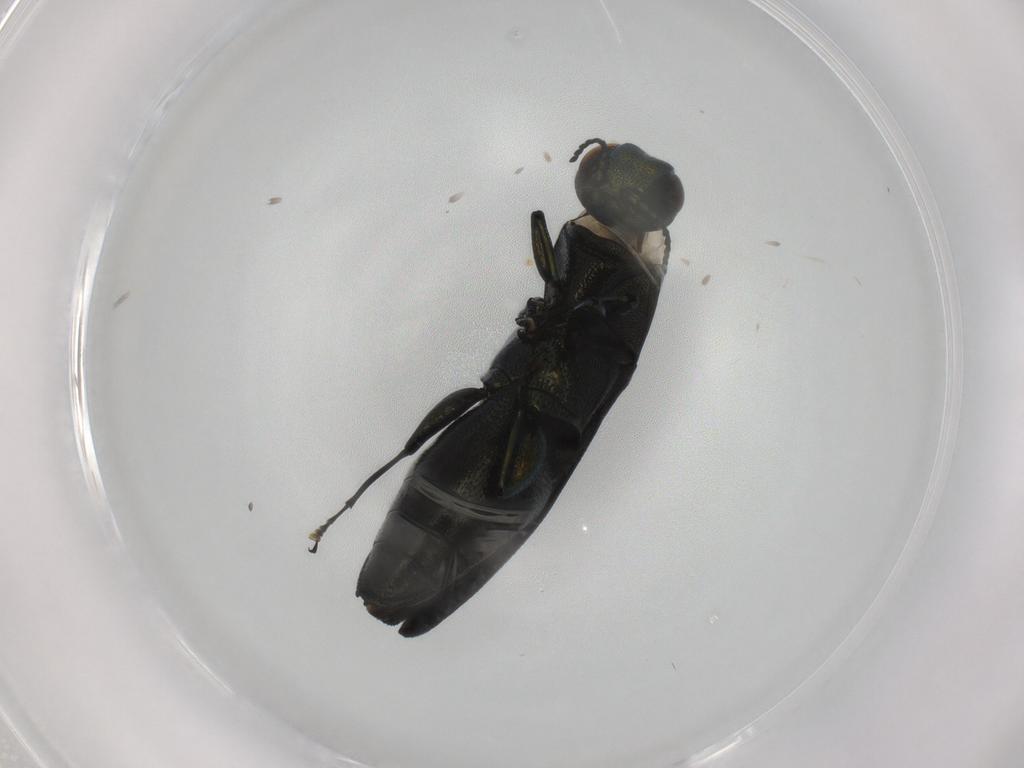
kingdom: Animalia
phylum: Arthropoda
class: Insecta
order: Coleoptera
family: Buprestidae
